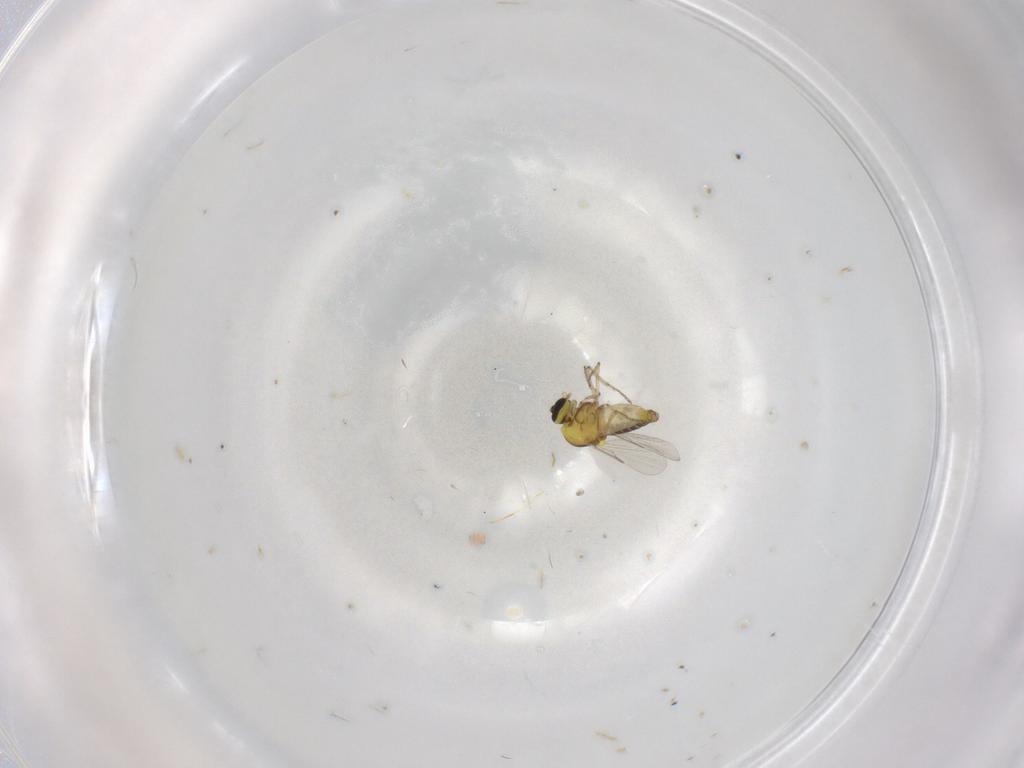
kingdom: Animalia
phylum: Arthropoda
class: Insecta
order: Diptera
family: Ceratopogonidae
